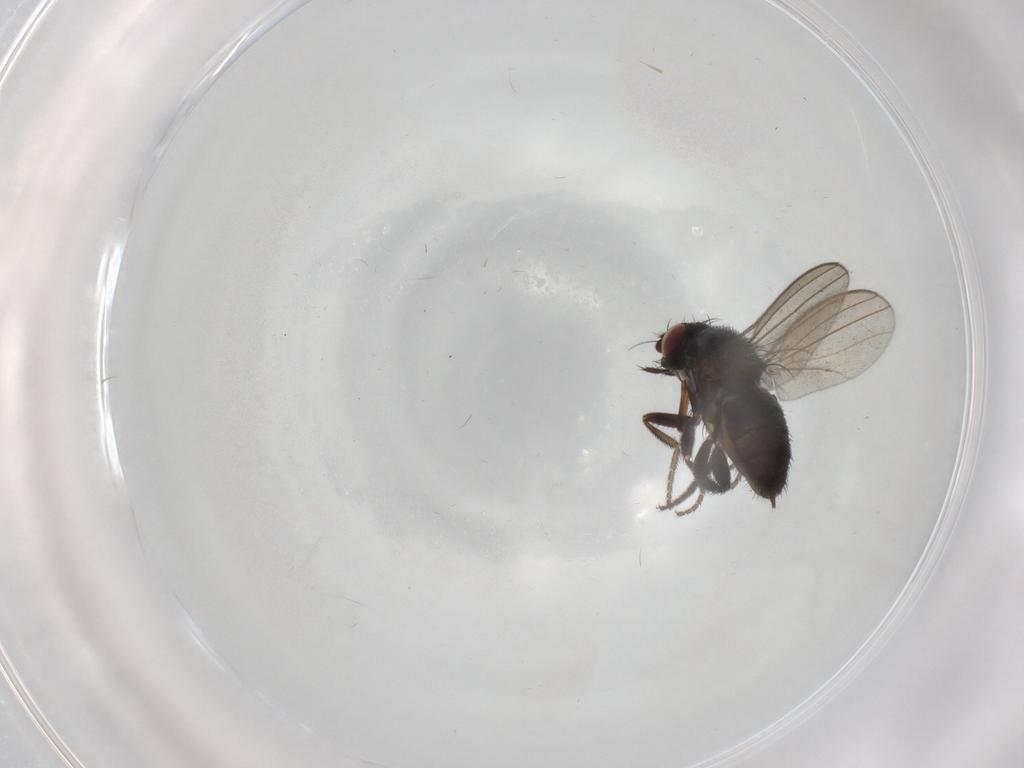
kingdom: Animalia
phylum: Arthropoda
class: Insecta
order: Diptera
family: Milichiidae
